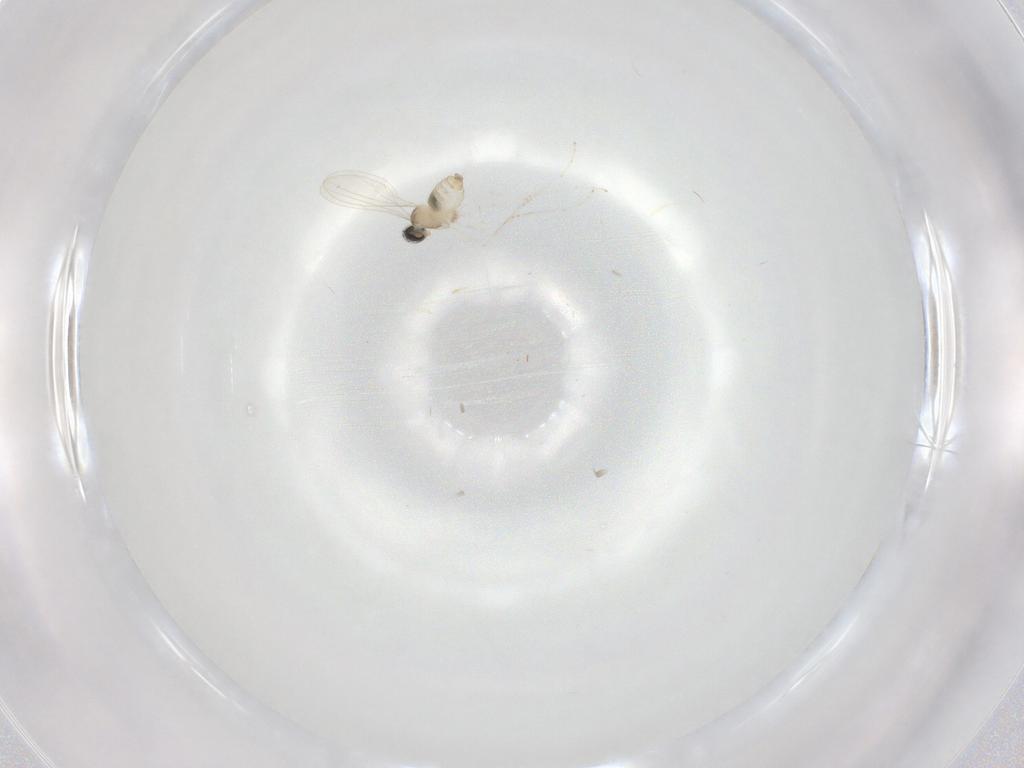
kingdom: Animalia
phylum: Arthropoda
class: Insecta
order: Diptera
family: Cecidomyiidae
